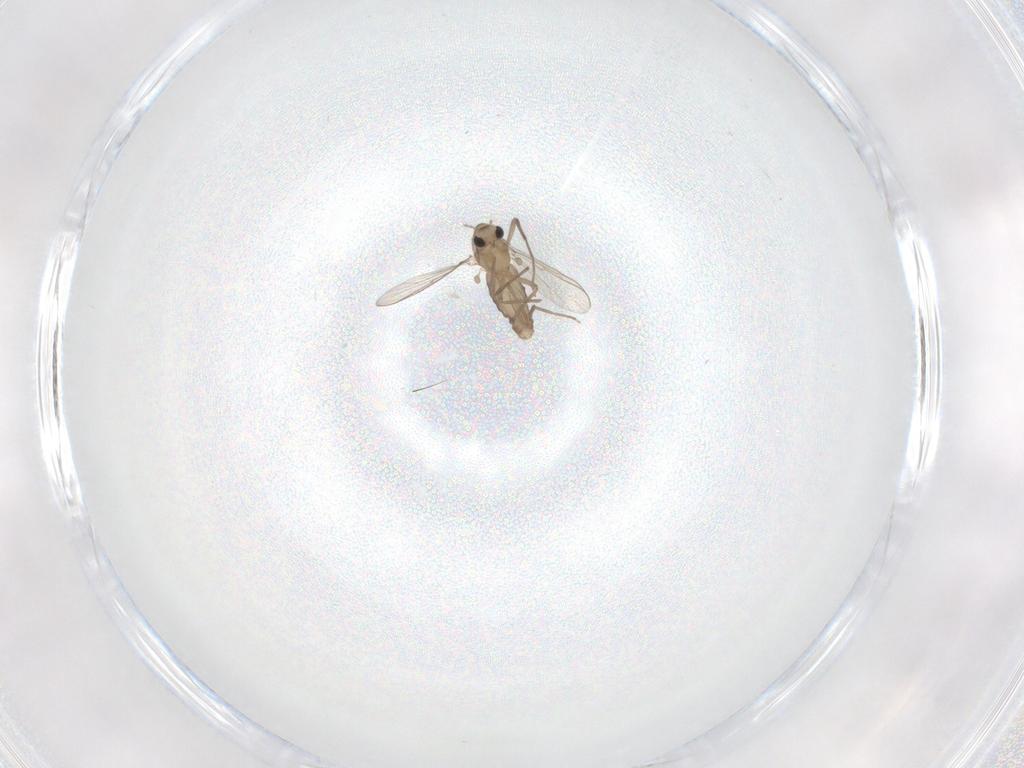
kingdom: Animalia
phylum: Arthropoda
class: Insecta
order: Diptera
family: Chironomidae
